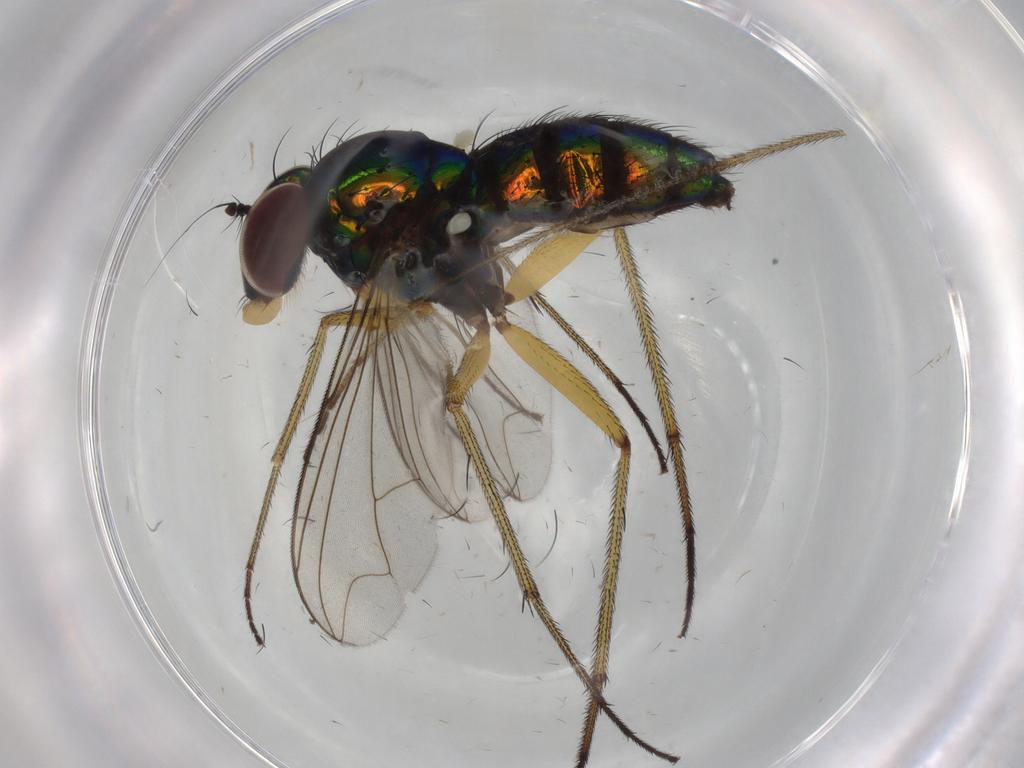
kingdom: Animalia
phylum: Arthropoda
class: Insecta
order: Diptera
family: Dolichopodidae
